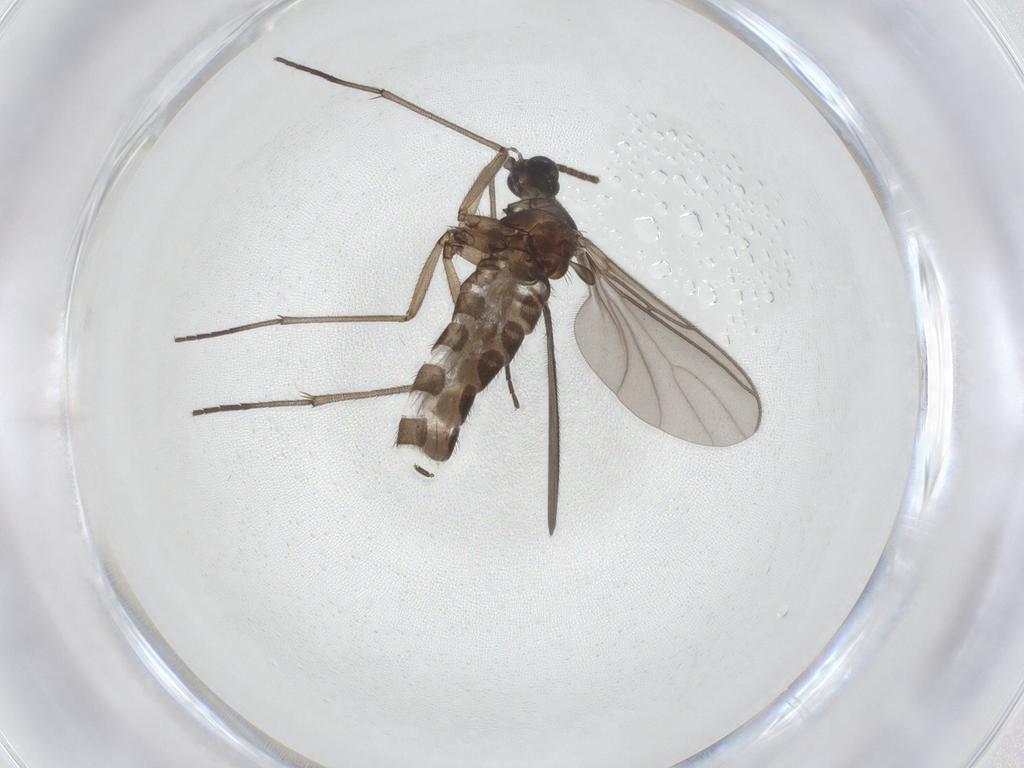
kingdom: Animalia
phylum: Arthropoda
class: Insecta
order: Diptera
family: Sciaridae
